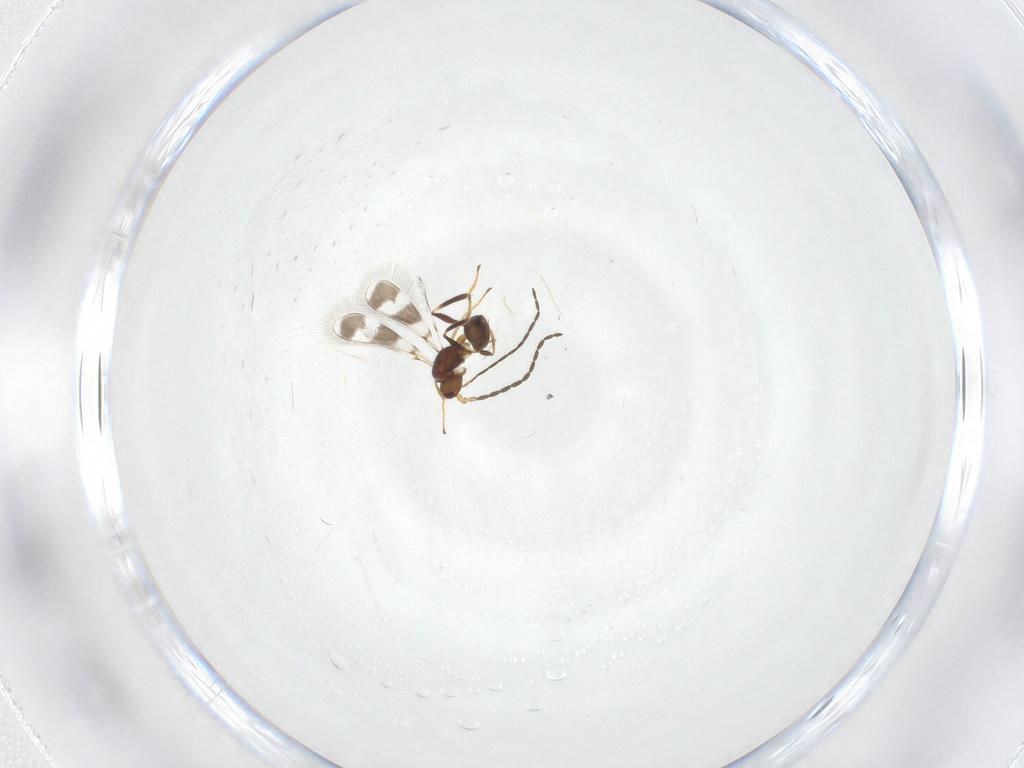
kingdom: Animalia
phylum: Arthropoda
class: Insecta
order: Hymenoptera
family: Mymaridae
